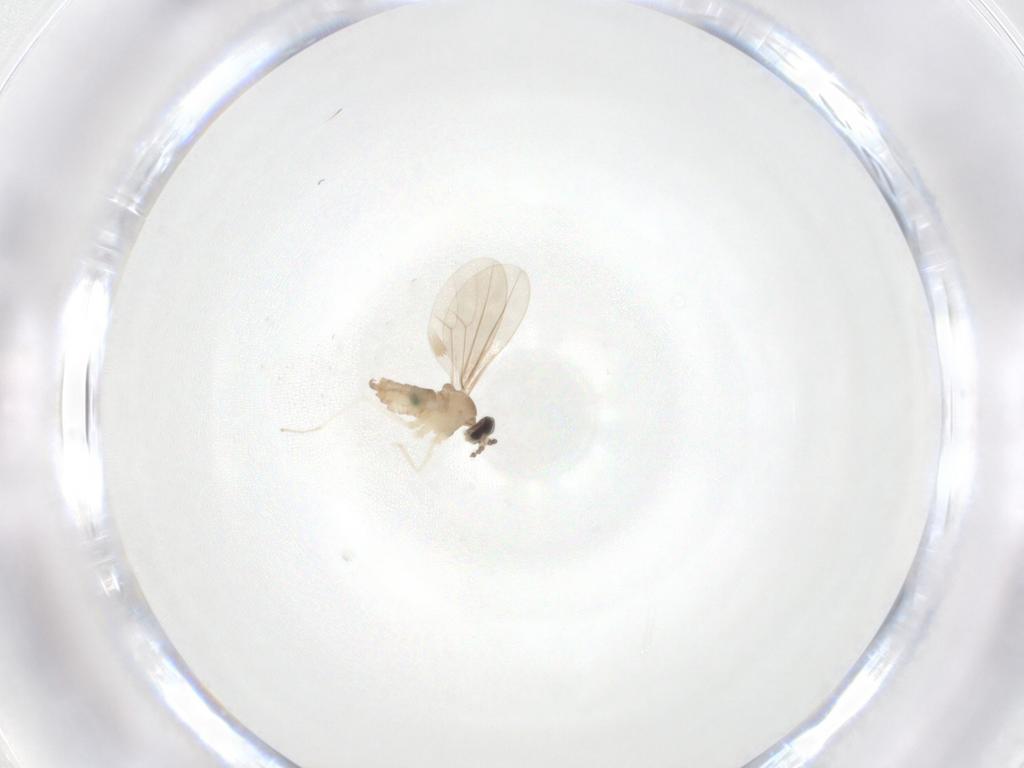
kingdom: Animalia
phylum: Arthropoda
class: Insecta
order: Diptera
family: Cecidomyiidae
